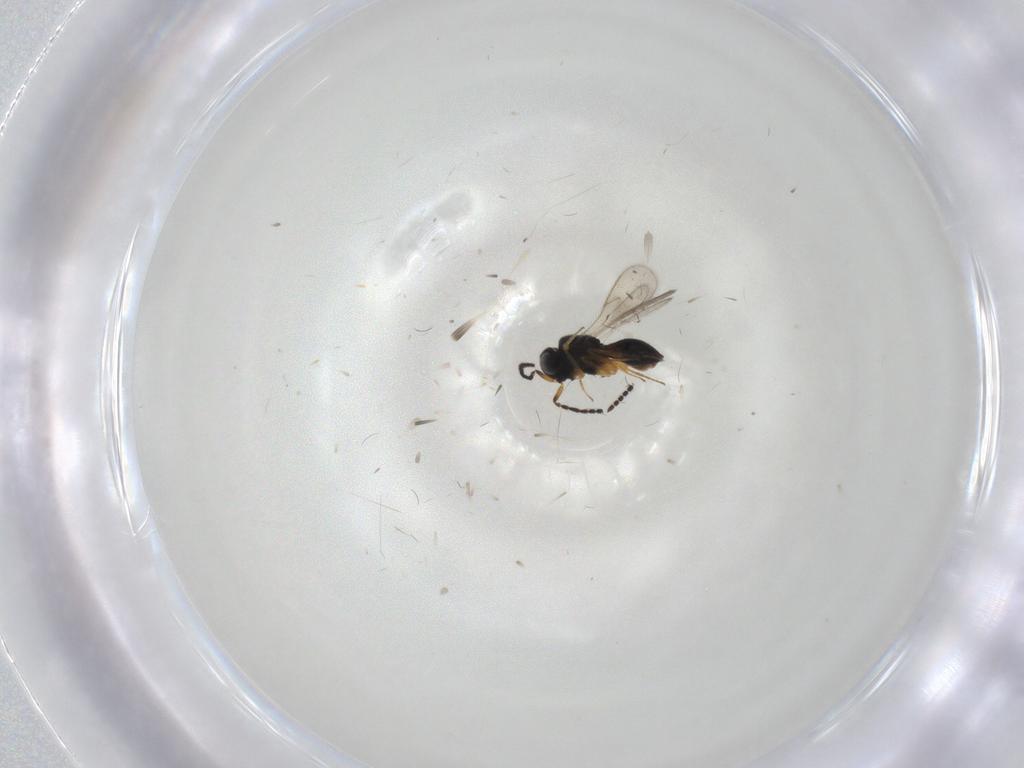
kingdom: Animalia
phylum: Arthropoda
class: Insecta
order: Hymenoptera
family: Scelionidae
